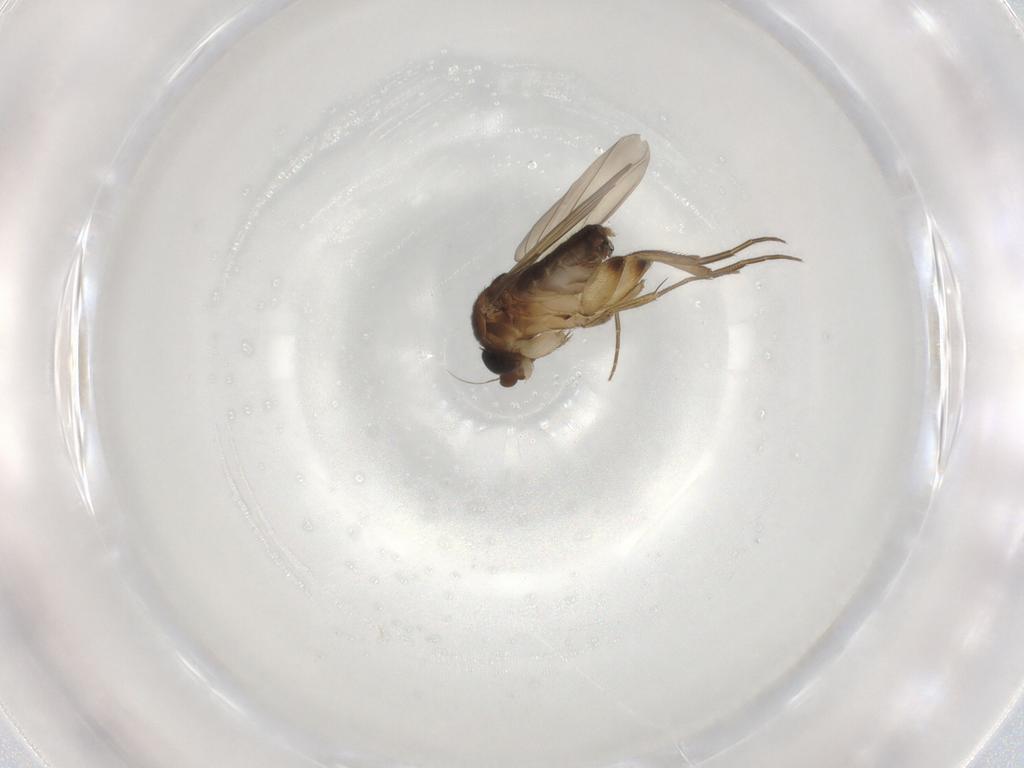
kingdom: Animalia
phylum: Arthropoda
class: Insecta
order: Diptera
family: Phoridae
